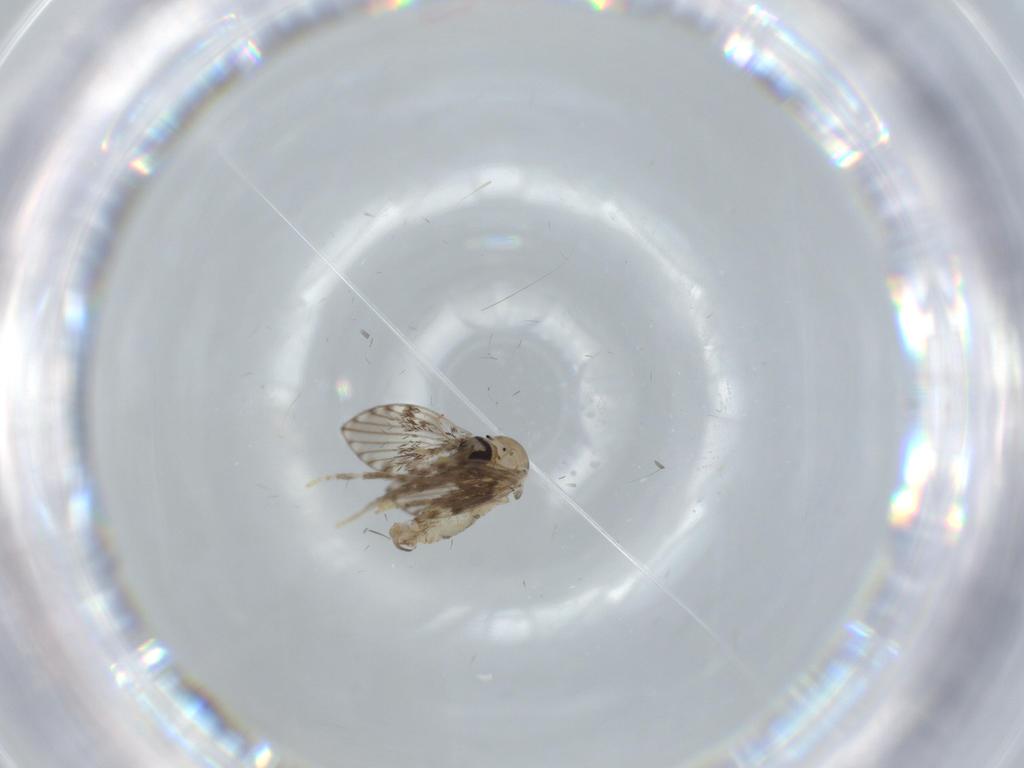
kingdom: Animalia
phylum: Arthropoda
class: Insecta
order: Diptera
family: Psychodidae
